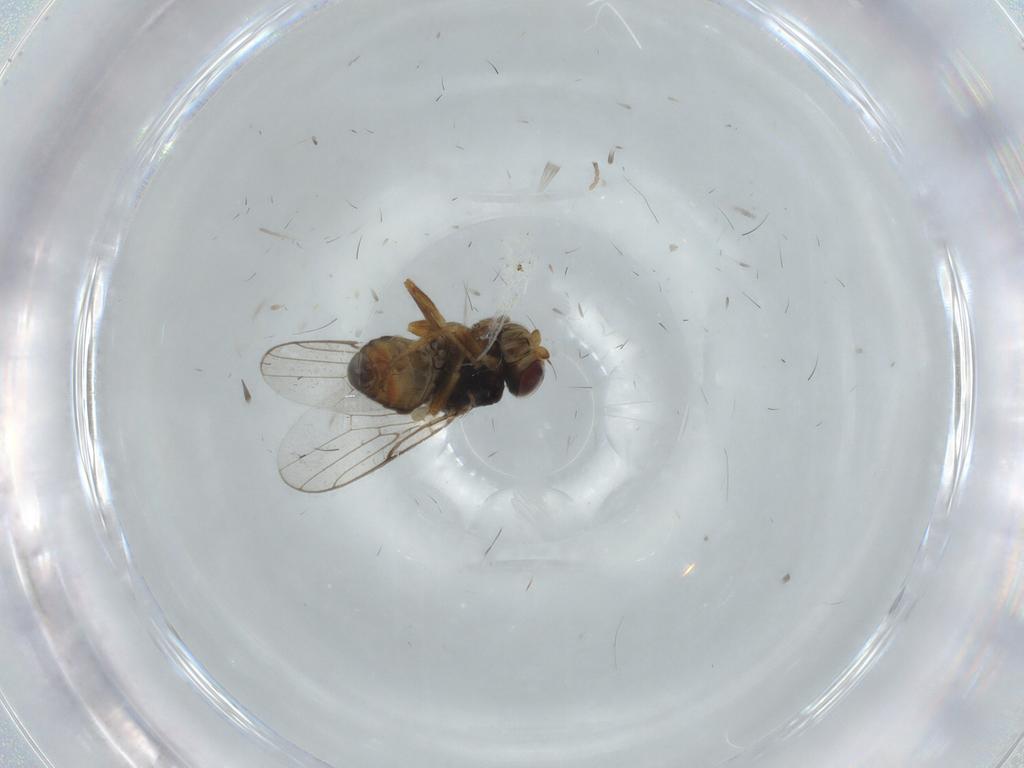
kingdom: Animalia
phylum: Arthropoda
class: Insecta
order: Diptera
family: Chloropidae
